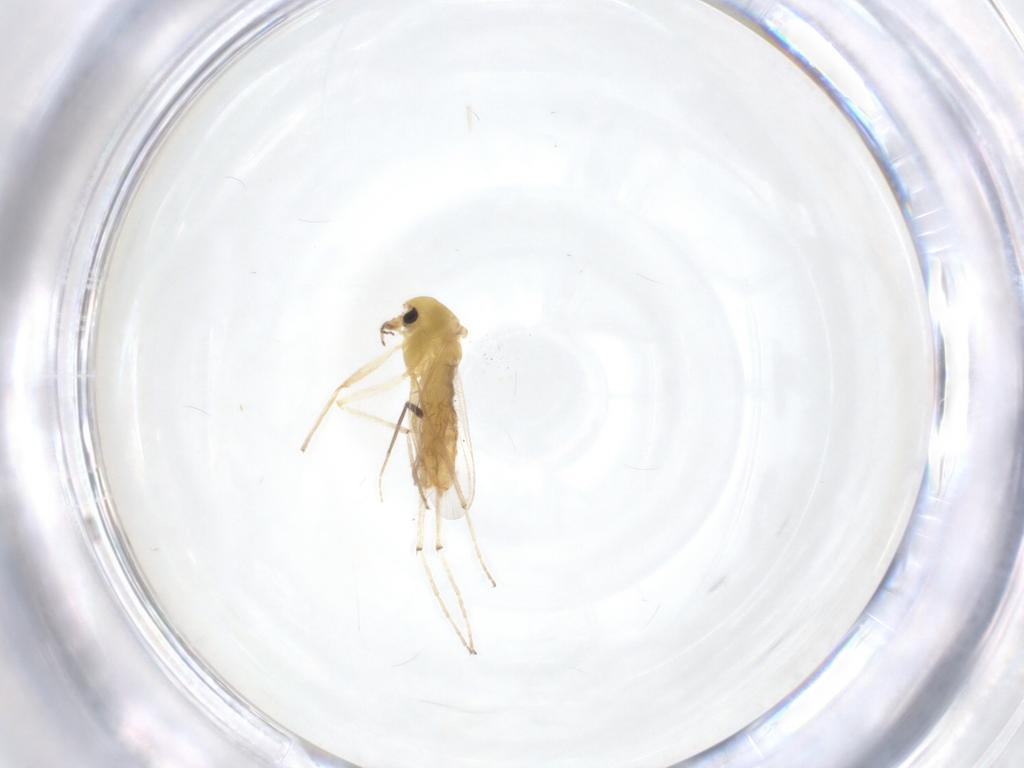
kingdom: Animalia
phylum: Arthropoda
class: Insecta
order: Diptera
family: Chironomidae
